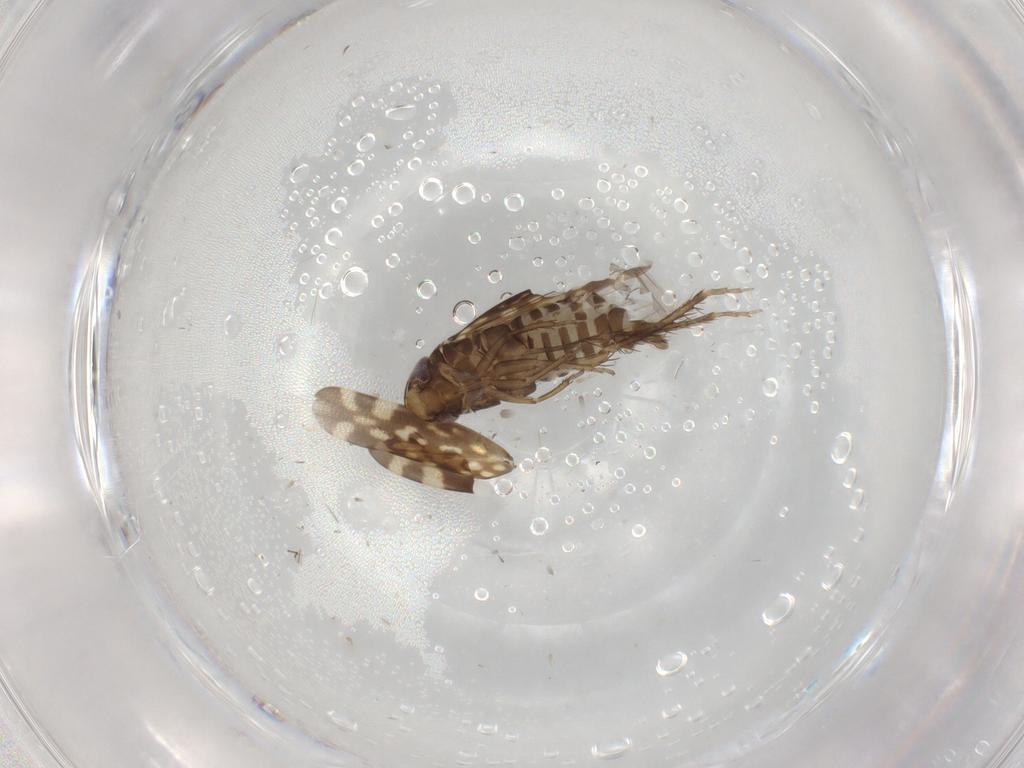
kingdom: Animalia
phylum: Arthropoda
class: Insecta
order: Hemiptera
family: Cicadellidae
